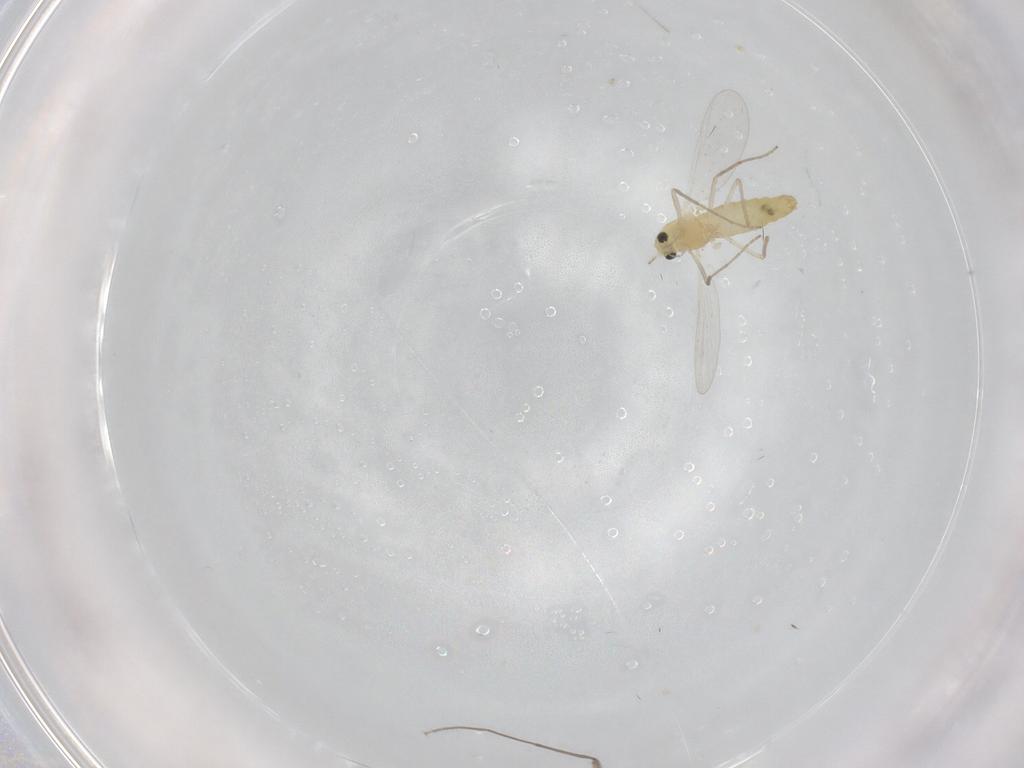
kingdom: Animalia
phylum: Arthropoda
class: Insecta
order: Diptera
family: Chironomidae
